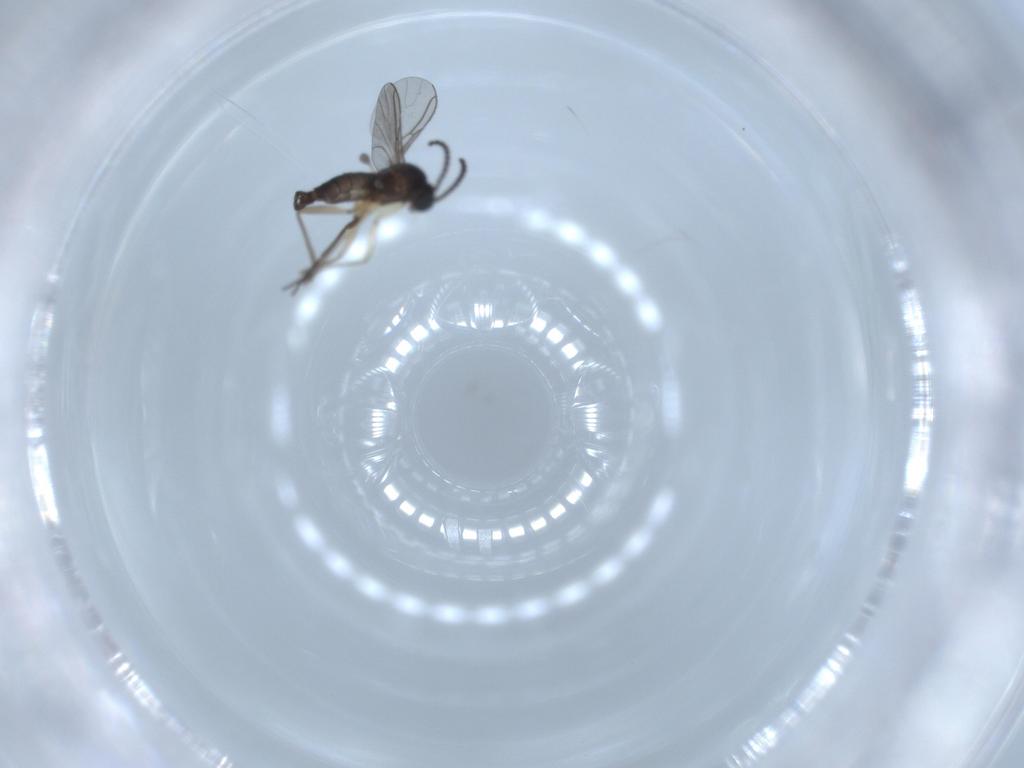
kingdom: Animalia
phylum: Arthropoda
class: Insecta
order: Diptera
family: Sciaridae
